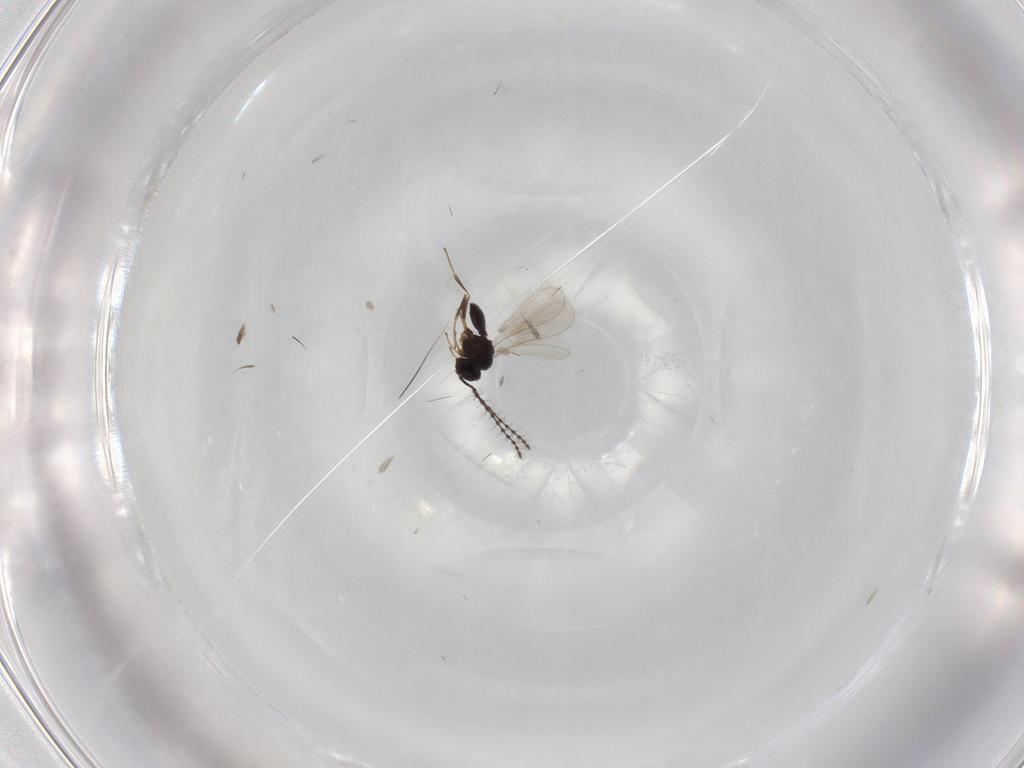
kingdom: Animalia
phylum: Arthropoda
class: Insecta
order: Hymenoptera
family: Scelionidae
